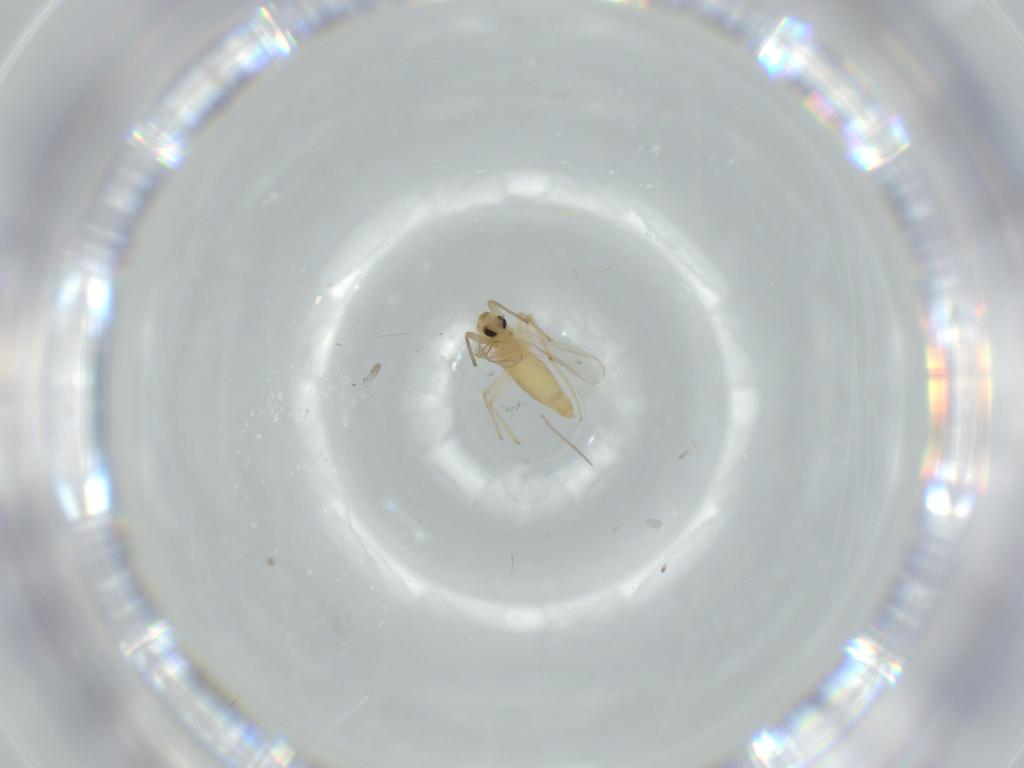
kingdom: Animalia
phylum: Arthropoda
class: Insecta
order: Diptera
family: Chironomidae
